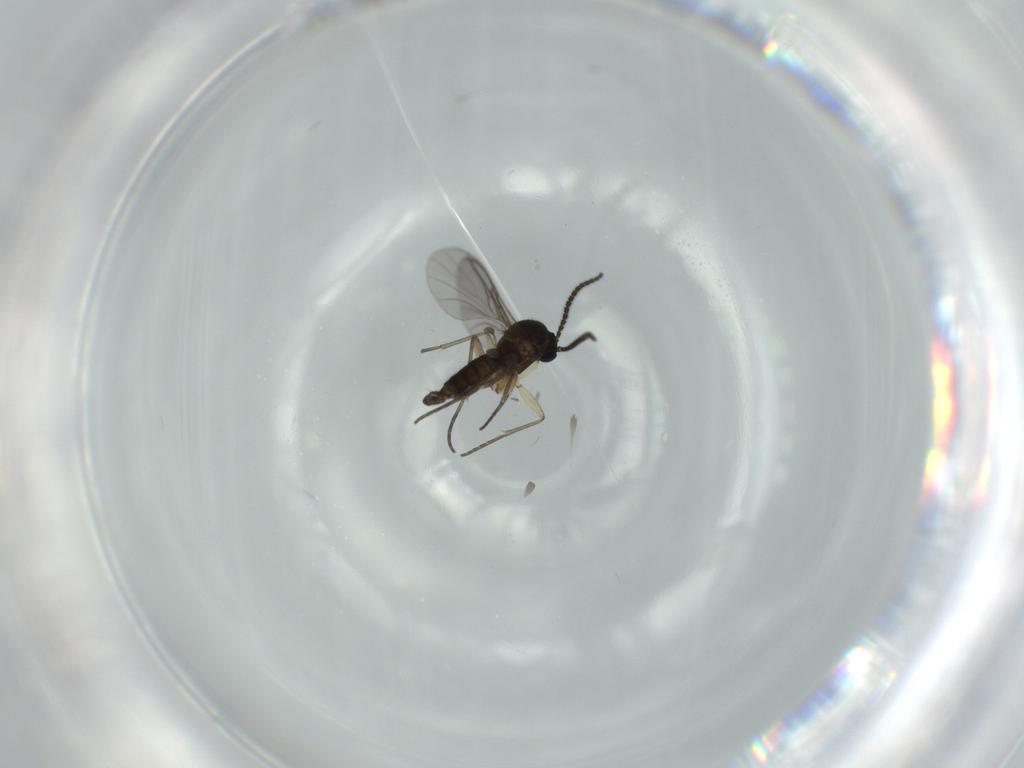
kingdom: Animalia
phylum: Arthropoda
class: Insecta
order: Diptera
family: Sciaridae
